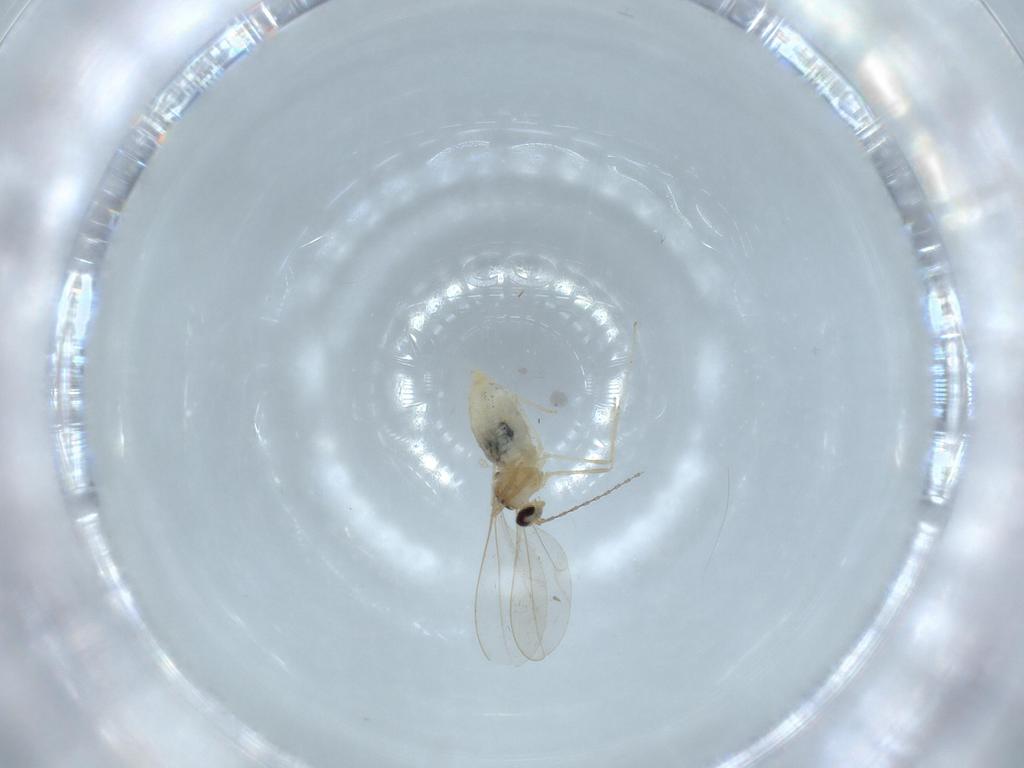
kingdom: Animalia
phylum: Arthropoda
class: Insecta
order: Diptera
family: Cecidomyiidae
